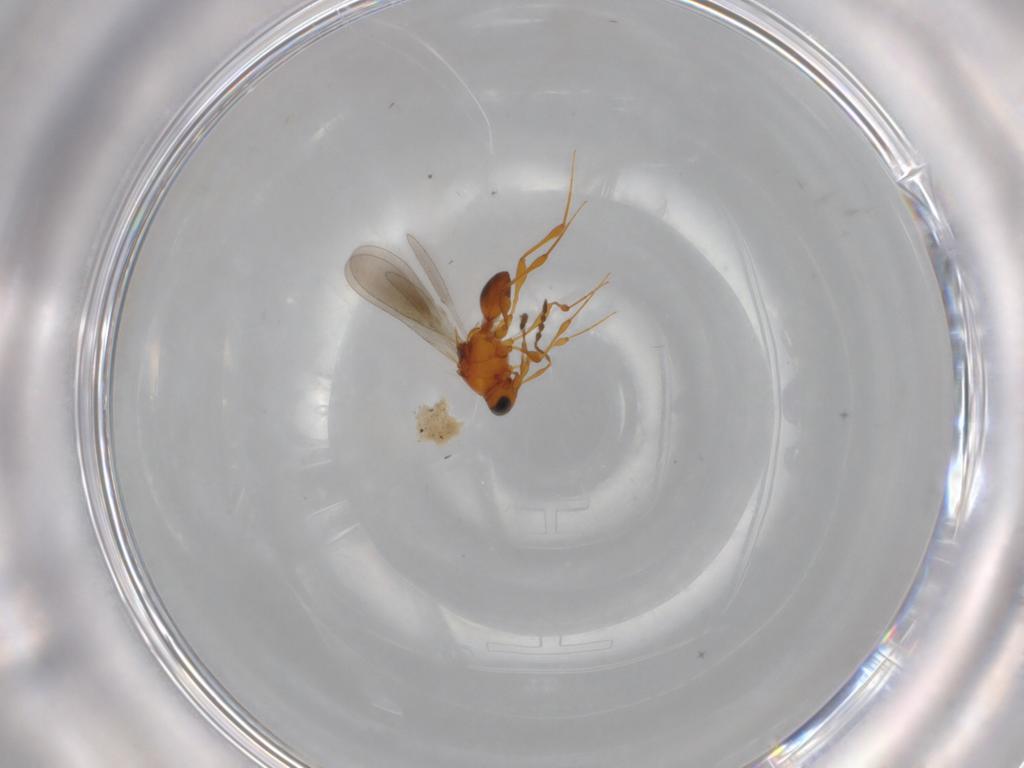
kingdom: Animalia
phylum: Arthropoda
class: Insecta
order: Hymenoptera
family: Platygastridae
